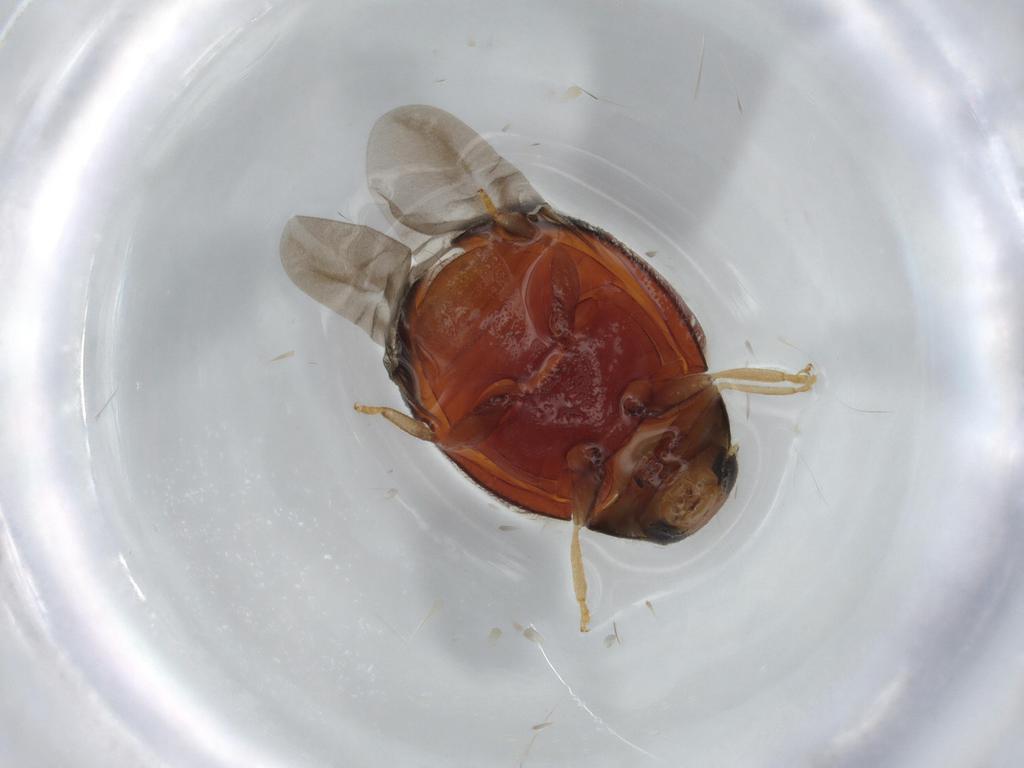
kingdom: Animalia
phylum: Arthropoda
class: Insecta
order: Coleoptera
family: Coccinellidae
